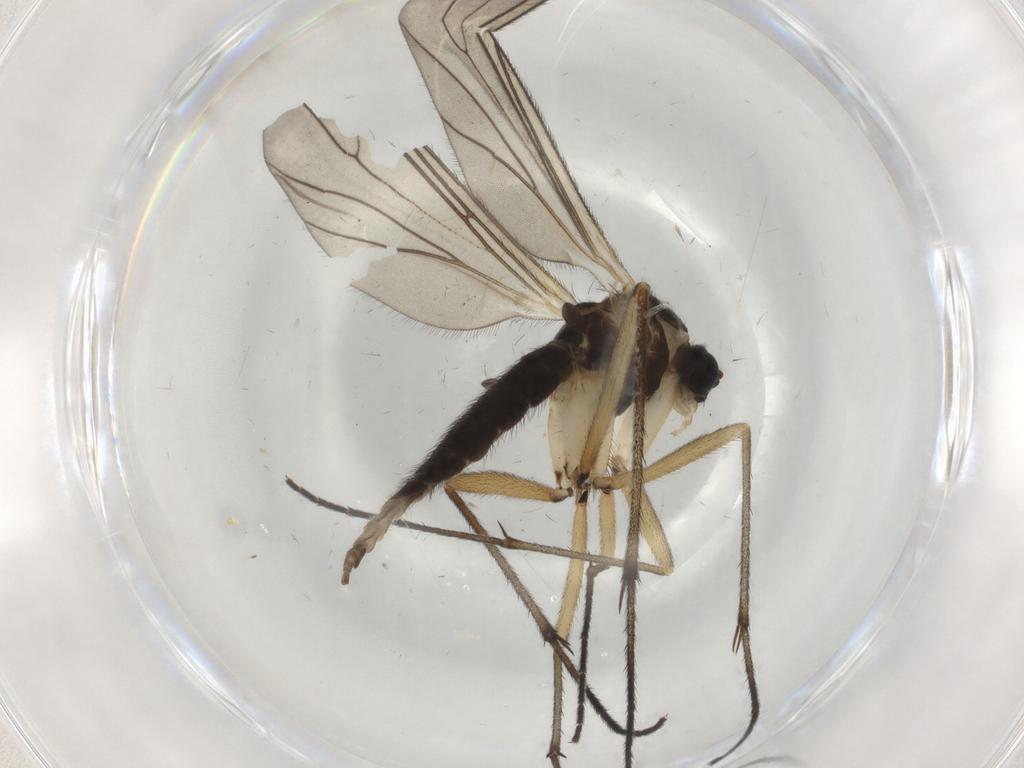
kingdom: Animalia
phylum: Arthropoda
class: Insecta
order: Diptera
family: Sciaridae
